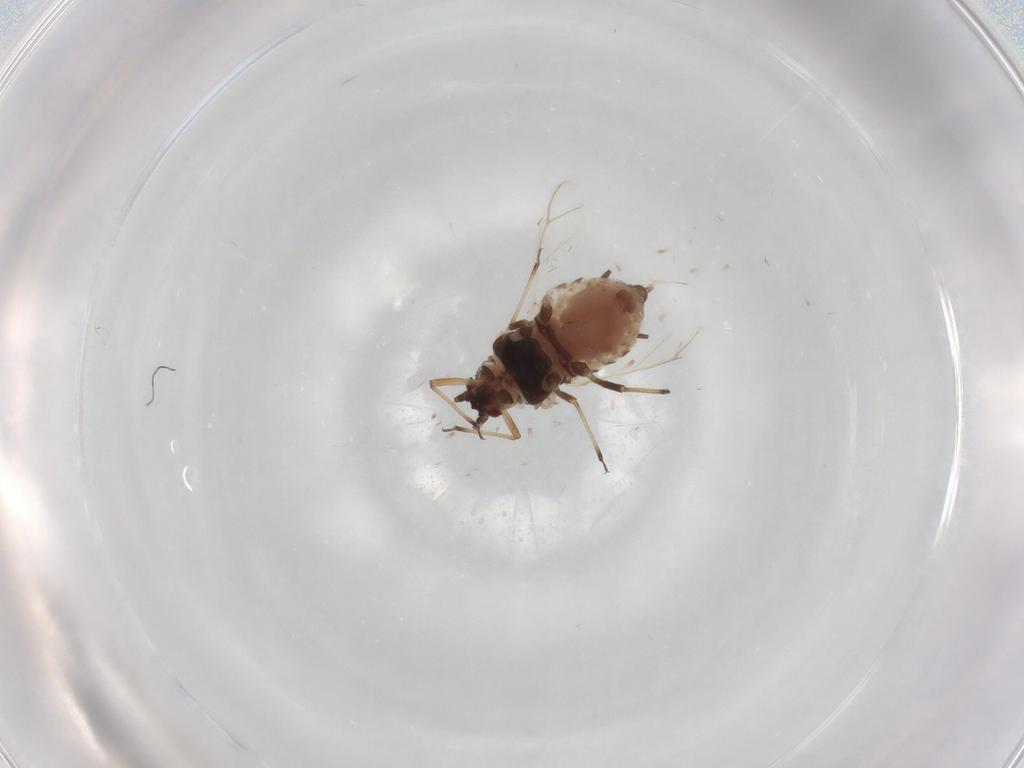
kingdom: Animalia
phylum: Arthropoda
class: Insecta
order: Hemiptera
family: Aphididae
